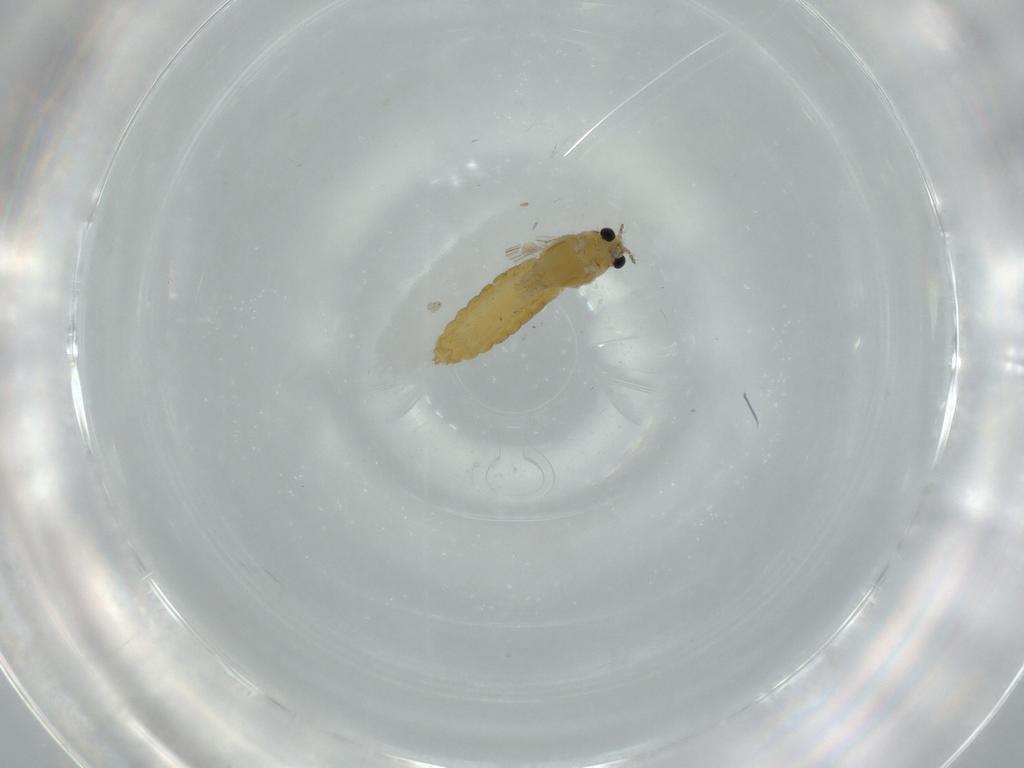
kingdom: Animalia
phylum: Arthropoda
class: Insecta
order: Diptera
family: Chironomidae
